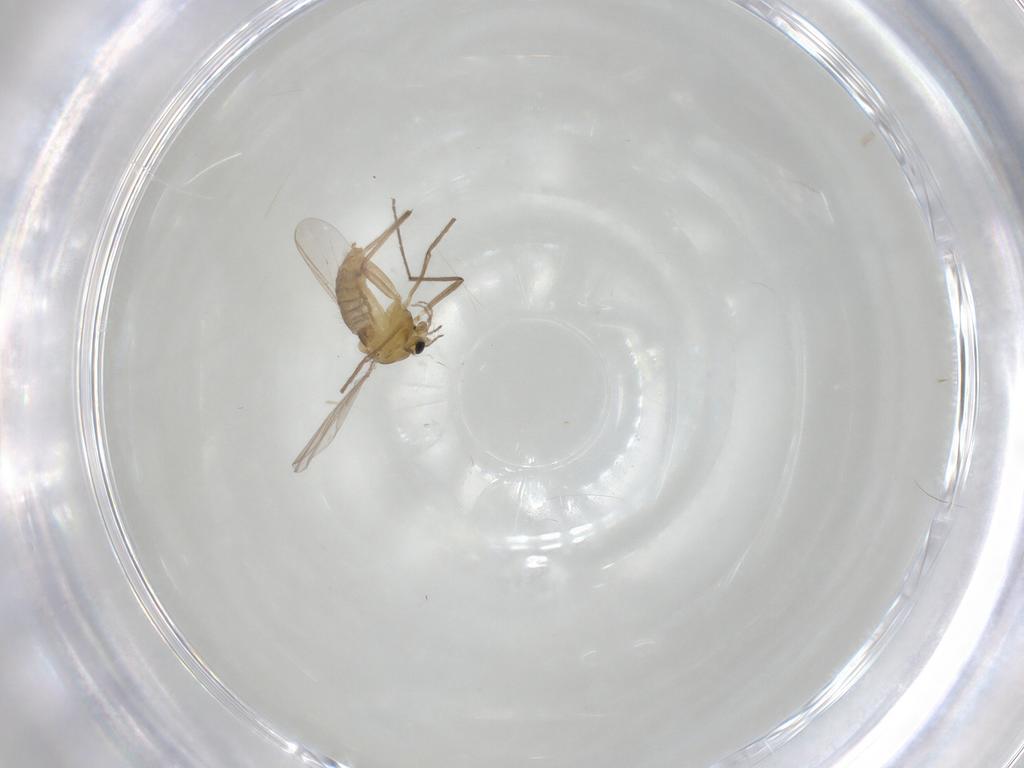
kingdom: Animalia
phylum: Arthropoda
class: Insecta
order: Diptera
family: Chironomidae
